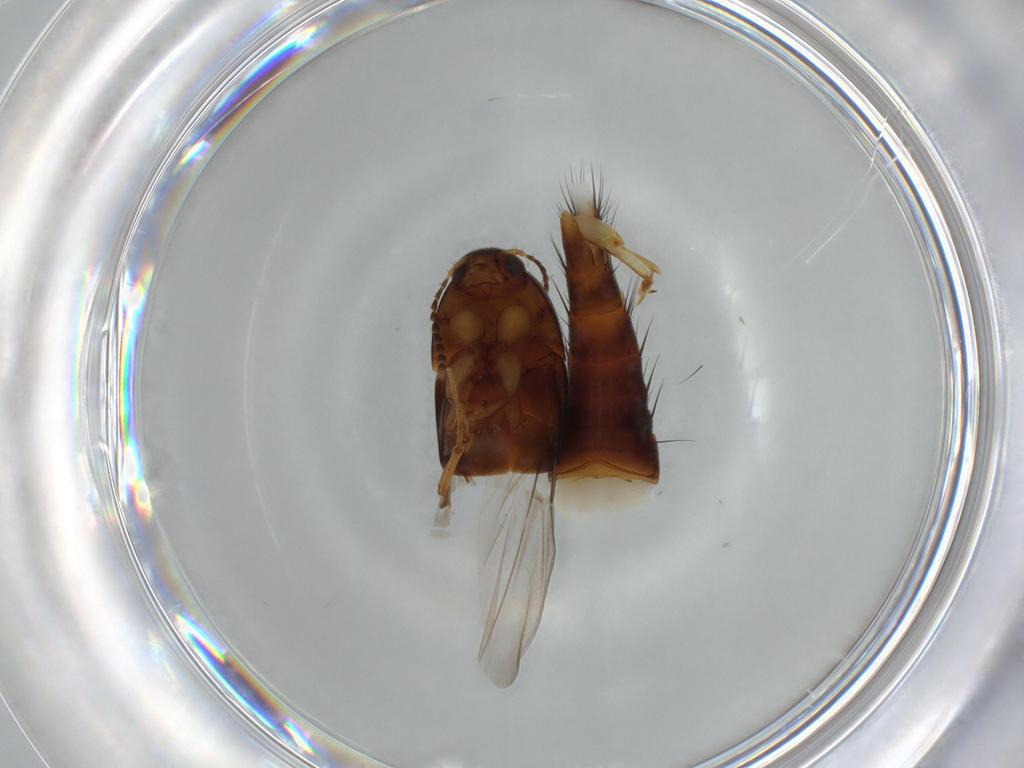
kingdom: Animalia
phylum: Arthropoda
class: Insecta
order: Coleoptera
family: Staphylinidae
